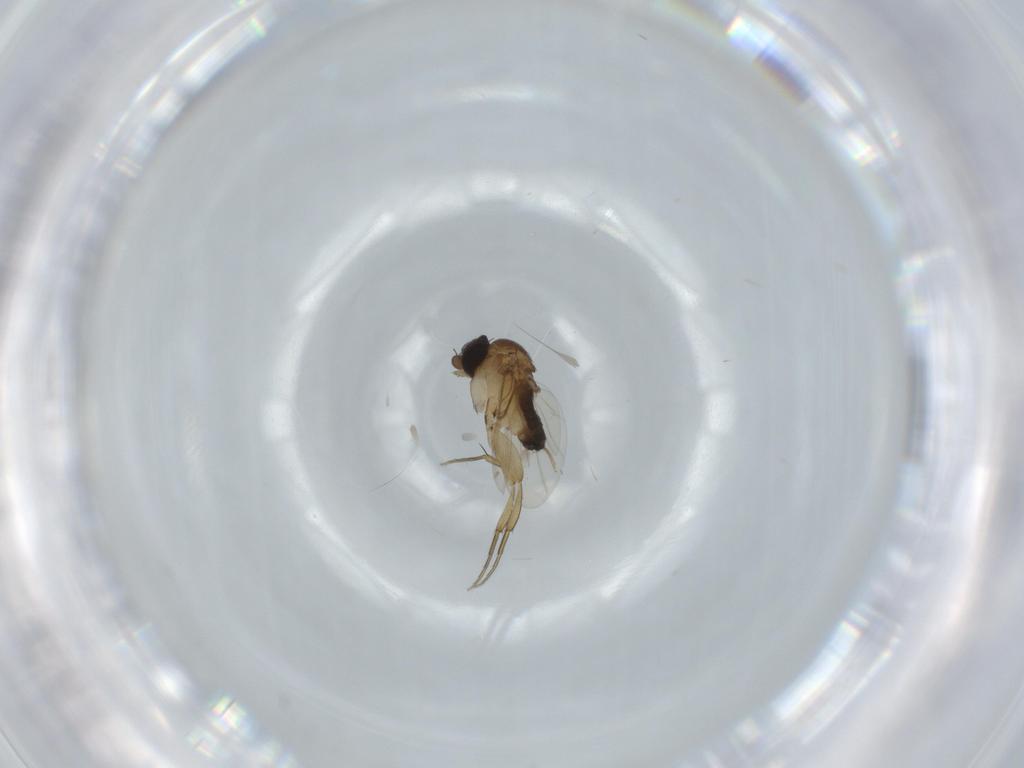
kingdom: Animalia
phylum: Arthropoda
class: Insecta
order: Diptera
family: Phoridae
